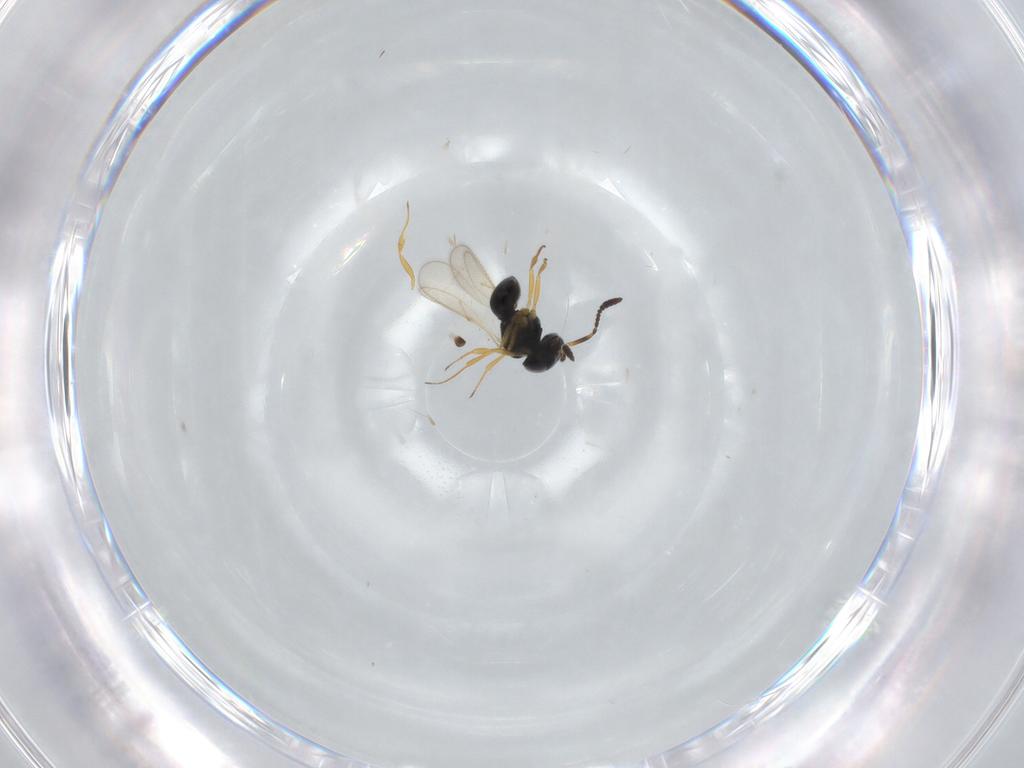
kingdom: Animalia
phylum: Arthropoda
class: Insecta
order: Hymenoptera
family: Scelionidae
